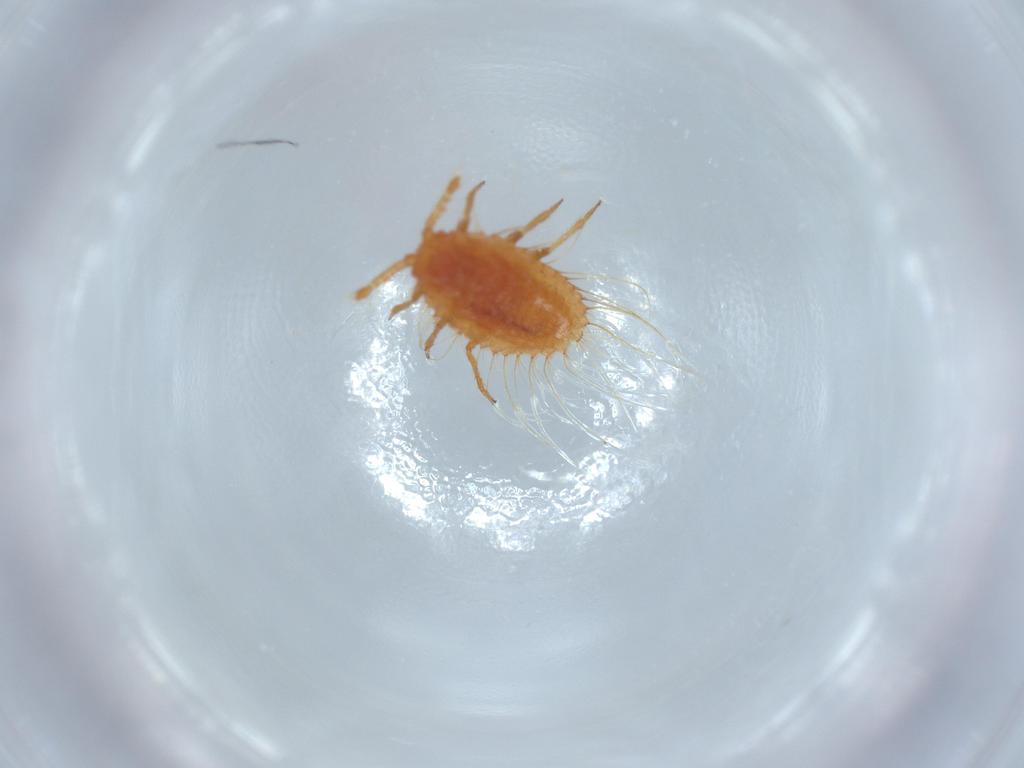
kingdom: Animalia
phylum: Arthropoda
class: Insecta
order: Hemiptera
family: Coccoidea_incertae_sedis
